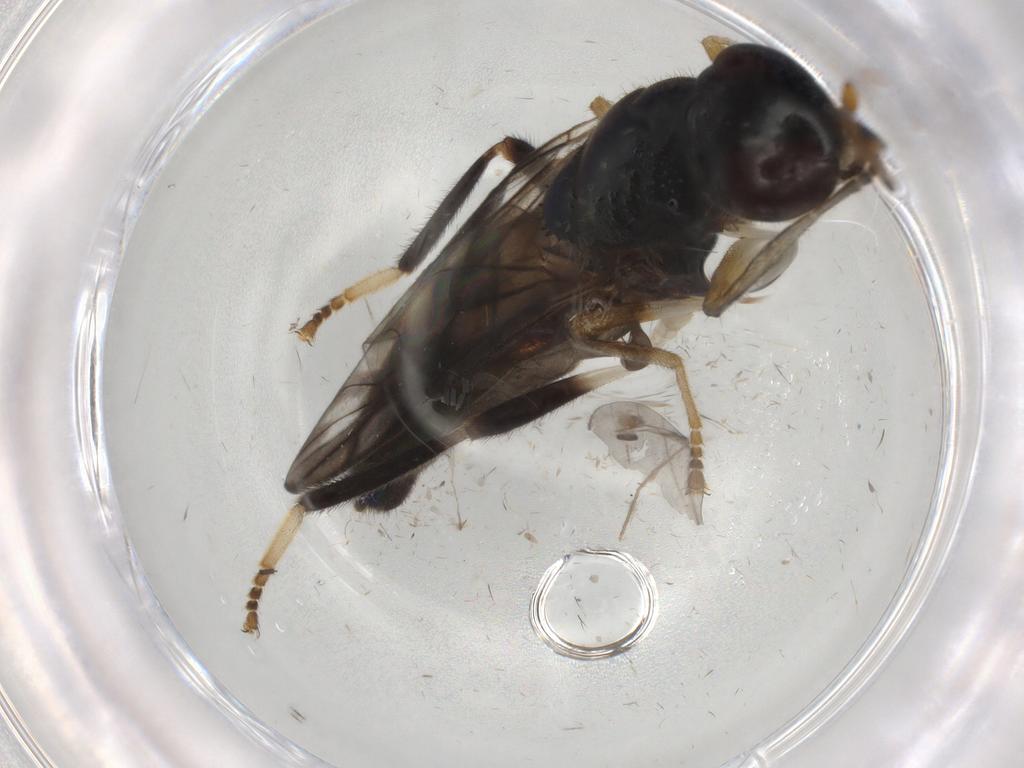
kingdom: Animalia
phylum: Arthropoda
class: Insecta
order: Diptera
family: Stratiomyidae
